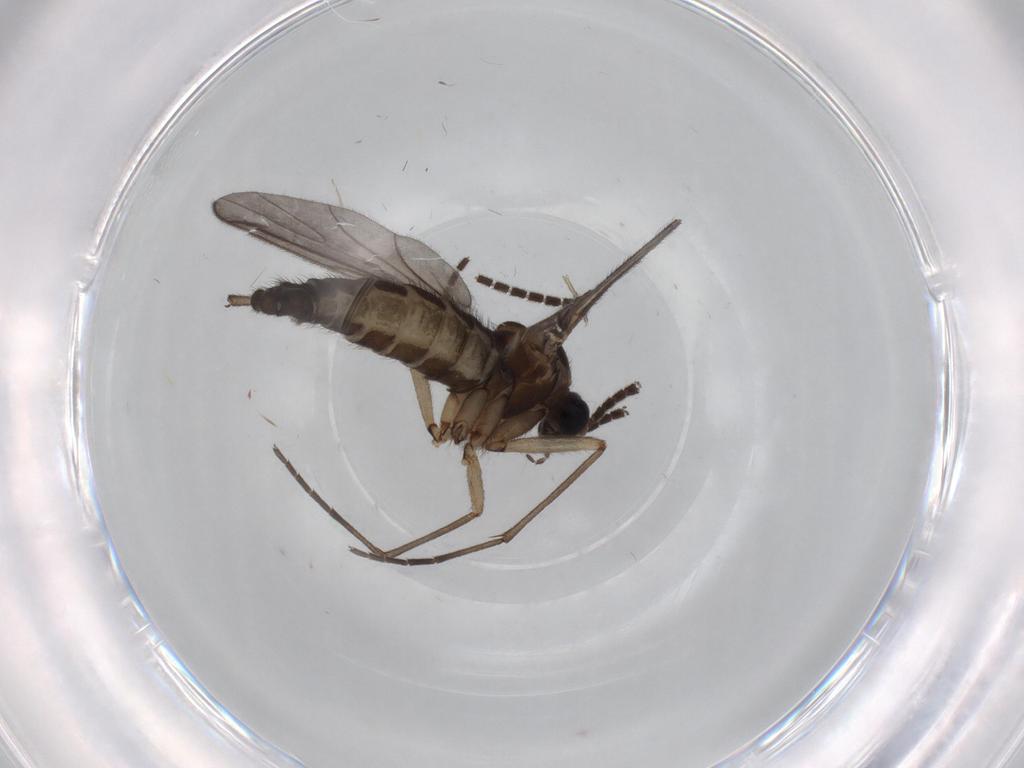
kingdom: Animalia
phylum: Arthropoda
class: Insecta
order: Diptera
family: Sciaridae
